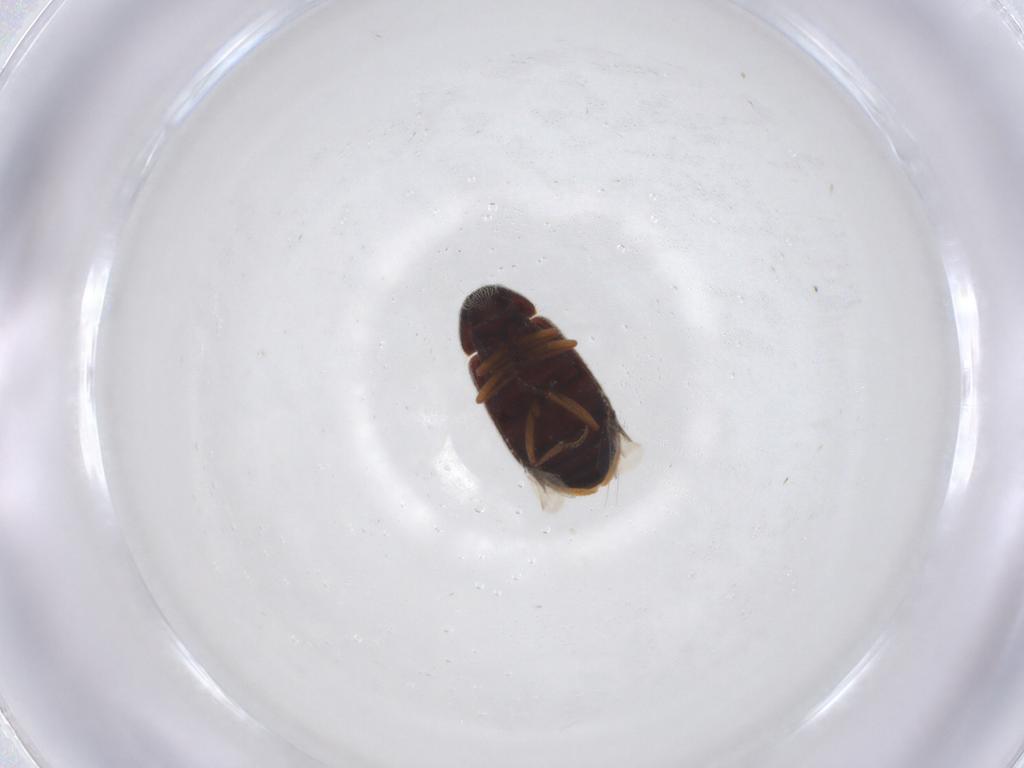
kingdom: Animalia
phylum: Arthropoda
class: Insecta
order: Coleoptera
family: Rhadalidae
